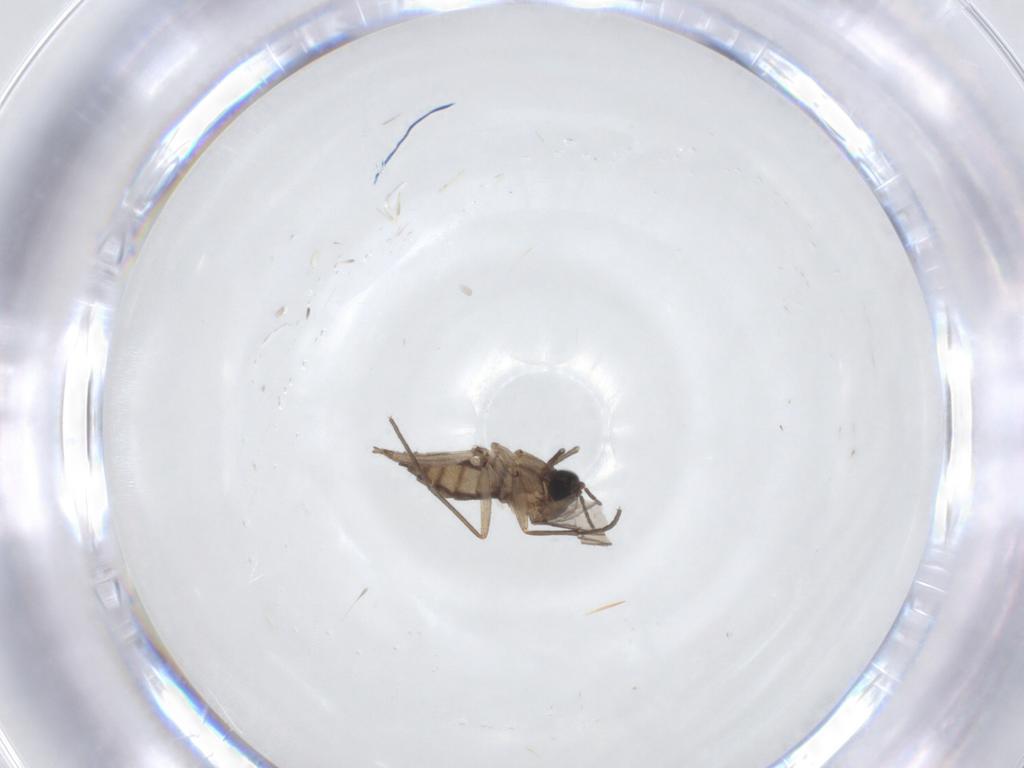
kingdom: Animalia
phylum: Arthropoda
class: Insecta
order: Diptera
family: Sciaridae
